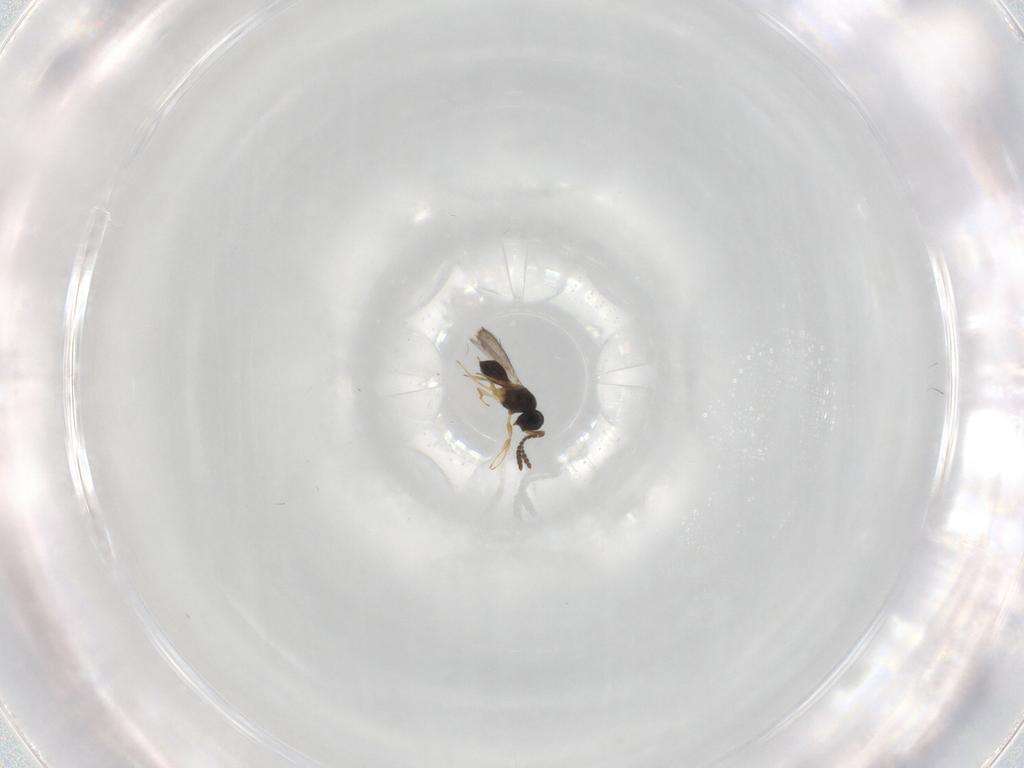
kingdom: Animalia
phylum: Arthropoda
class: Insecta
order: Hymenoptera
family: Scelionidae
